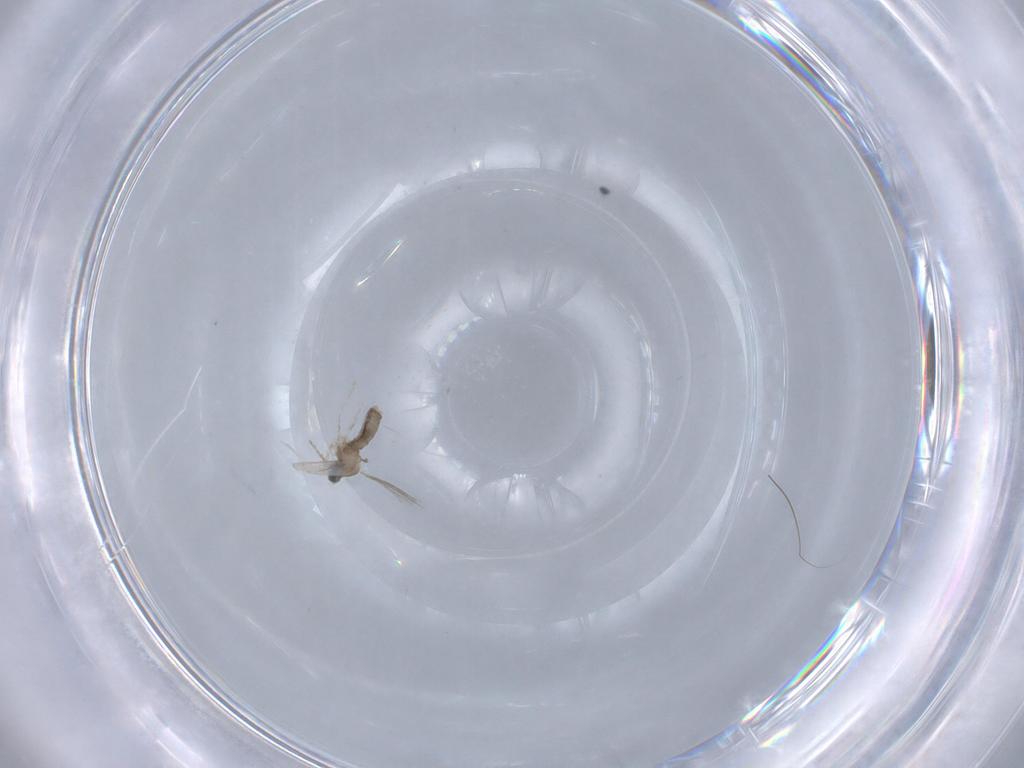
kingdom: Animalia
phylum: Arthropoda
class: Insecta
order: Diptera
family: Cecidomyiidae
